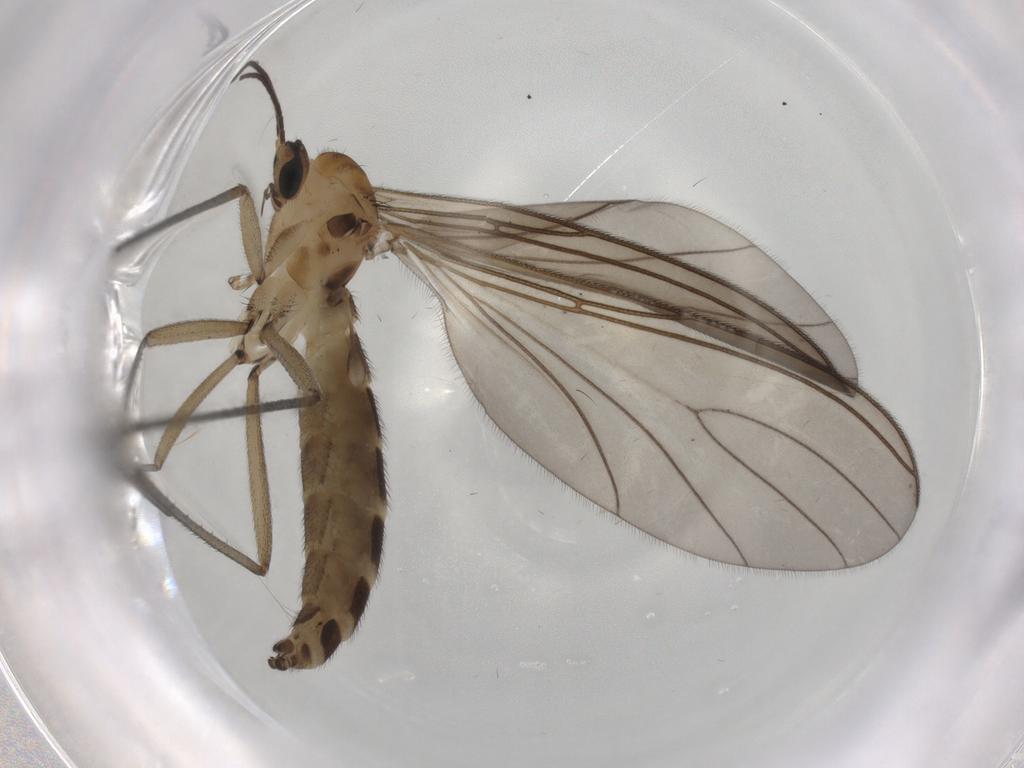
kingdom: Animalia
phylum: Arthropoda
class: Insecta
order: Diptera
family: Sciaridae
